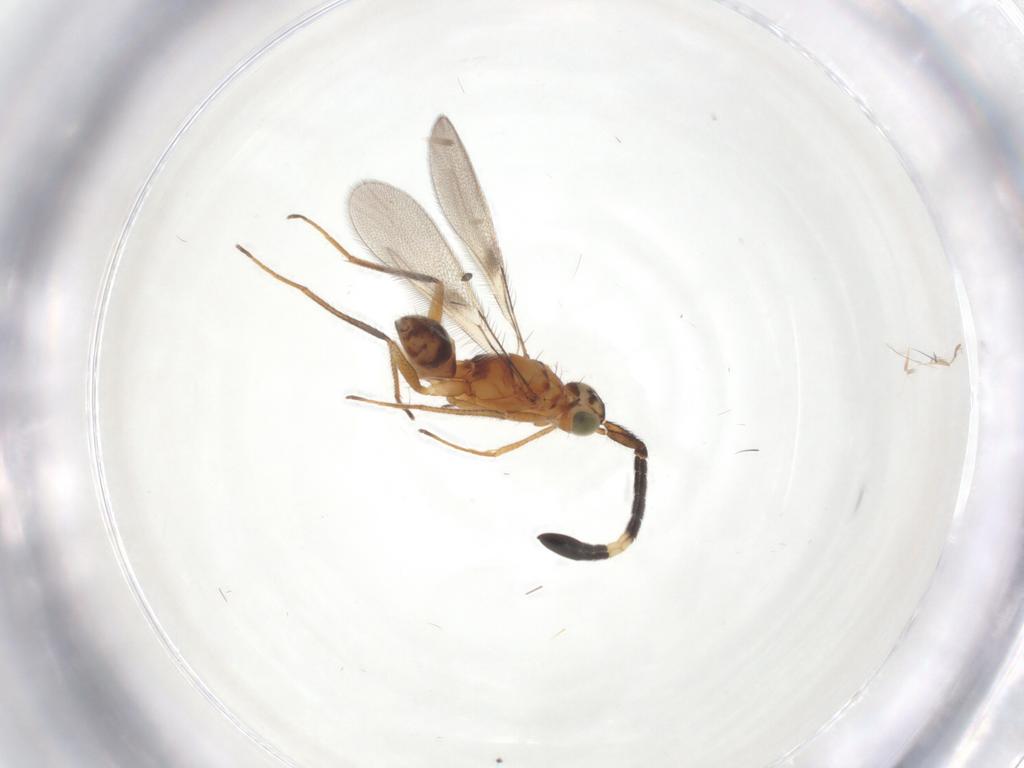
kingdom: Animalia
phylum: Arthropoda
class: Insecta
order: Hymenoptera
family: Mymaridae
